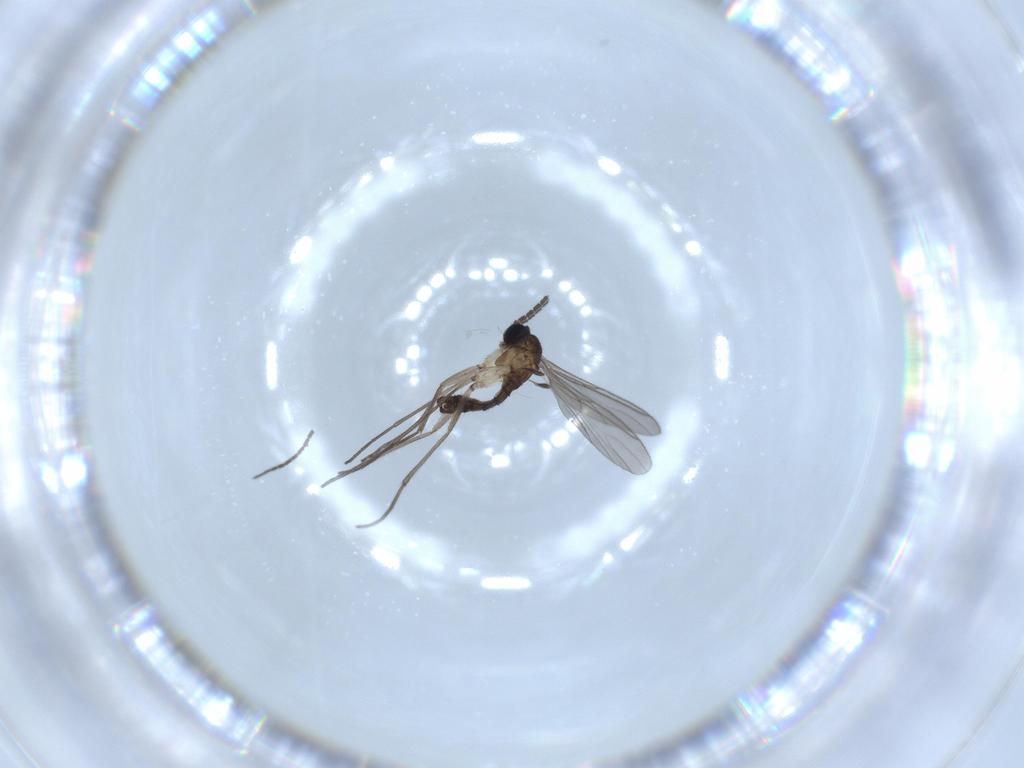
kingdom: Animalia
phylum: Arthropoda
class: Insecta
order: Diptera
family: Sciaridae
